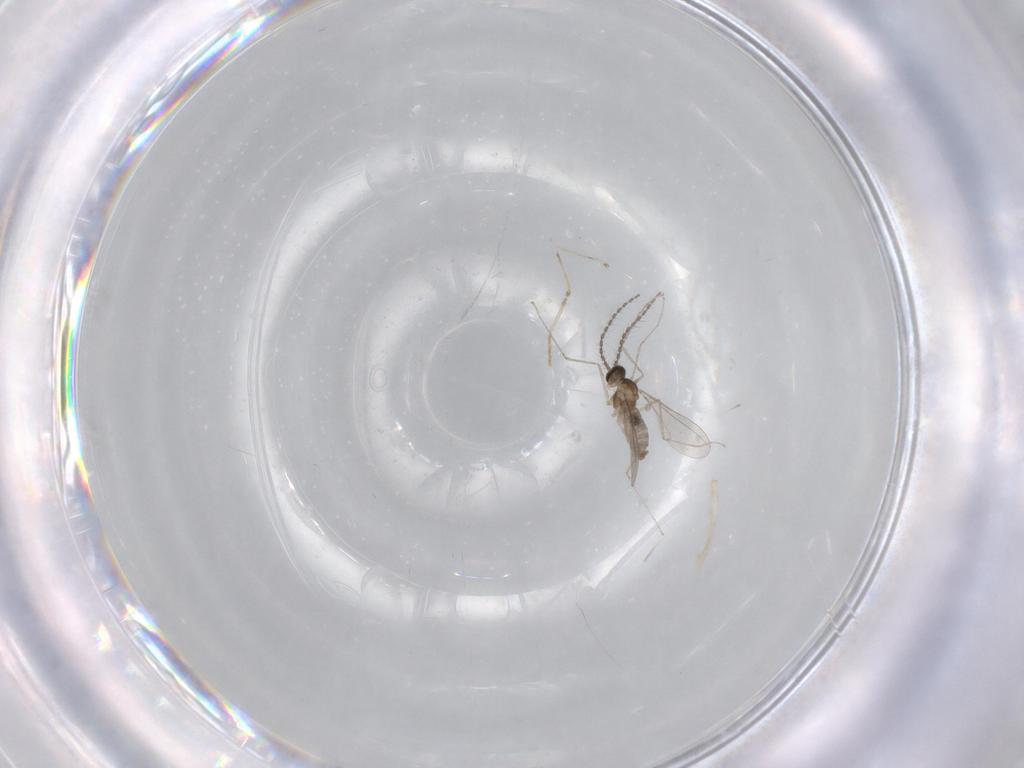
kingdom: Animalia
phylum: Arthropoda
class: Insecta
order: Diptera
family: Cecidomyiidae
